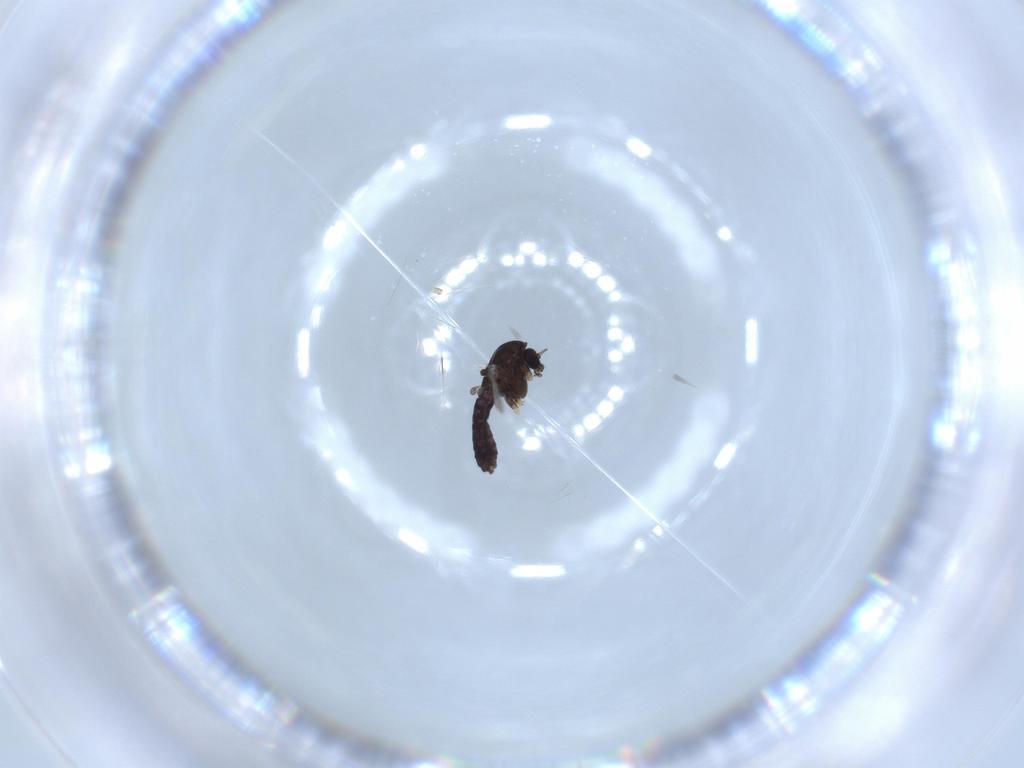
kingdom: Animalia
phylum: Arthropoda
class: Insecta
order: Diptera
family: Chironomidae
